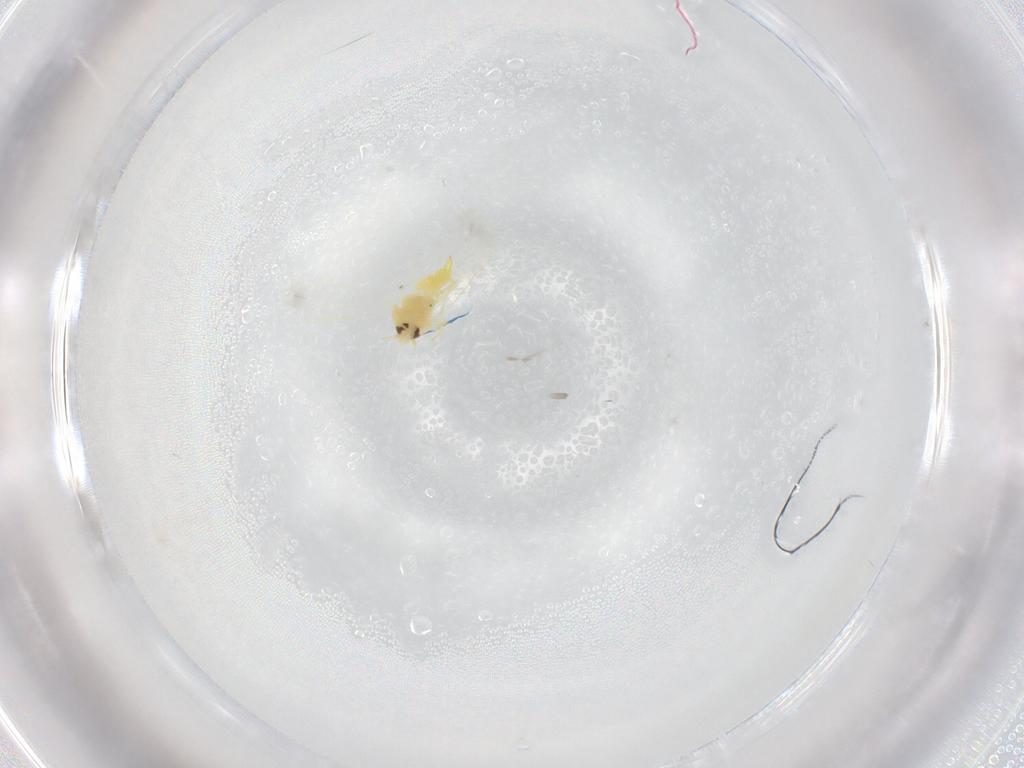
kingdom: Animalia
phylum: Arthropoda
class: Insecta
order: Hemiptera
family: Aleyrodidae
